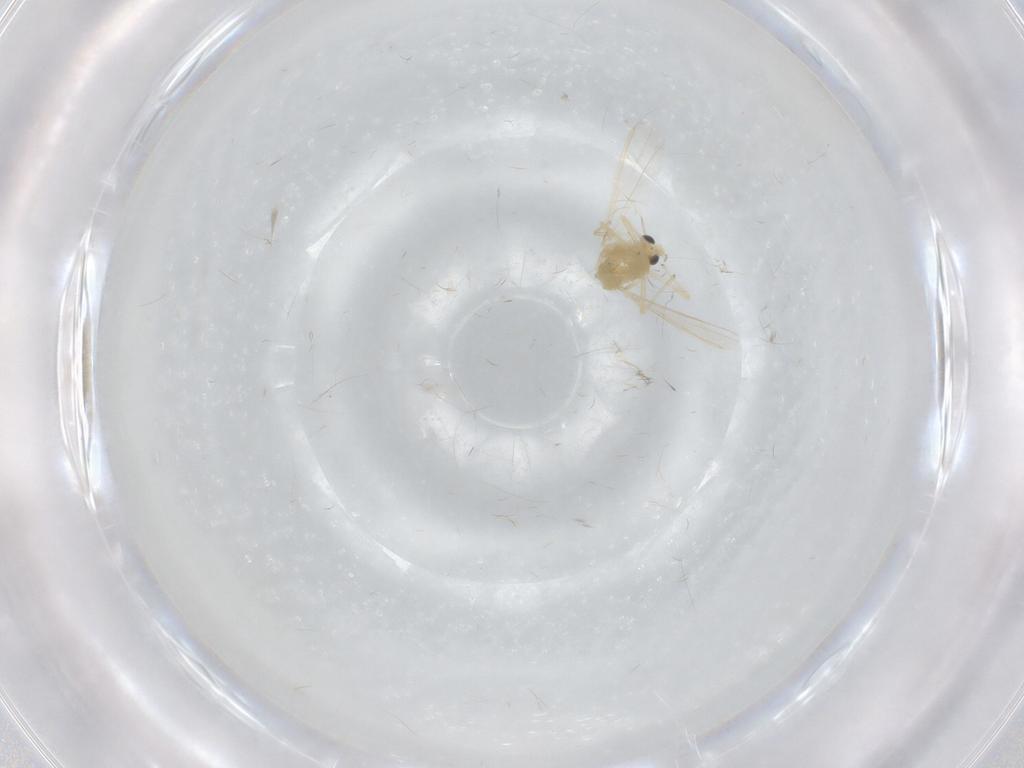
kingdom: Animalia
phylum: Arthropoda
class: Insecta
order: Diptera
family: Chironomidae
